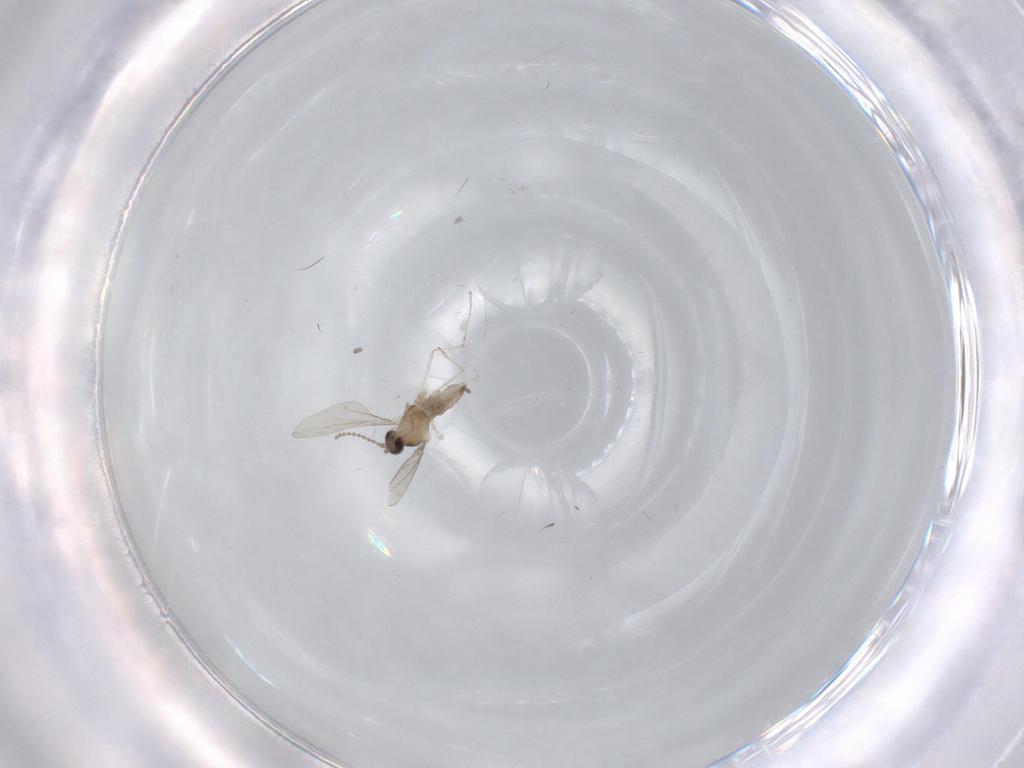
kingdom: Animalia
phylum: Arthropoda
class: Insecta
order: Diptera
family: Cecidomyiidae
